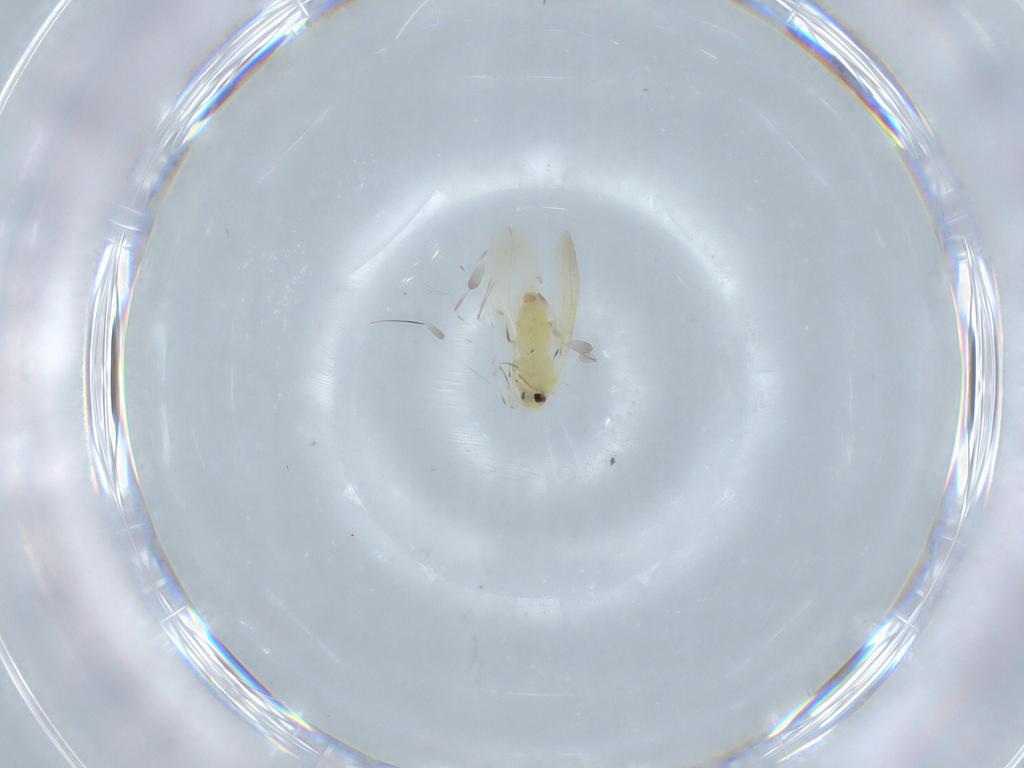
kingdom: Animalia
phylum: Arthropoda
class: Insecta
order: Hemiptera
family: Aleyrodidae
